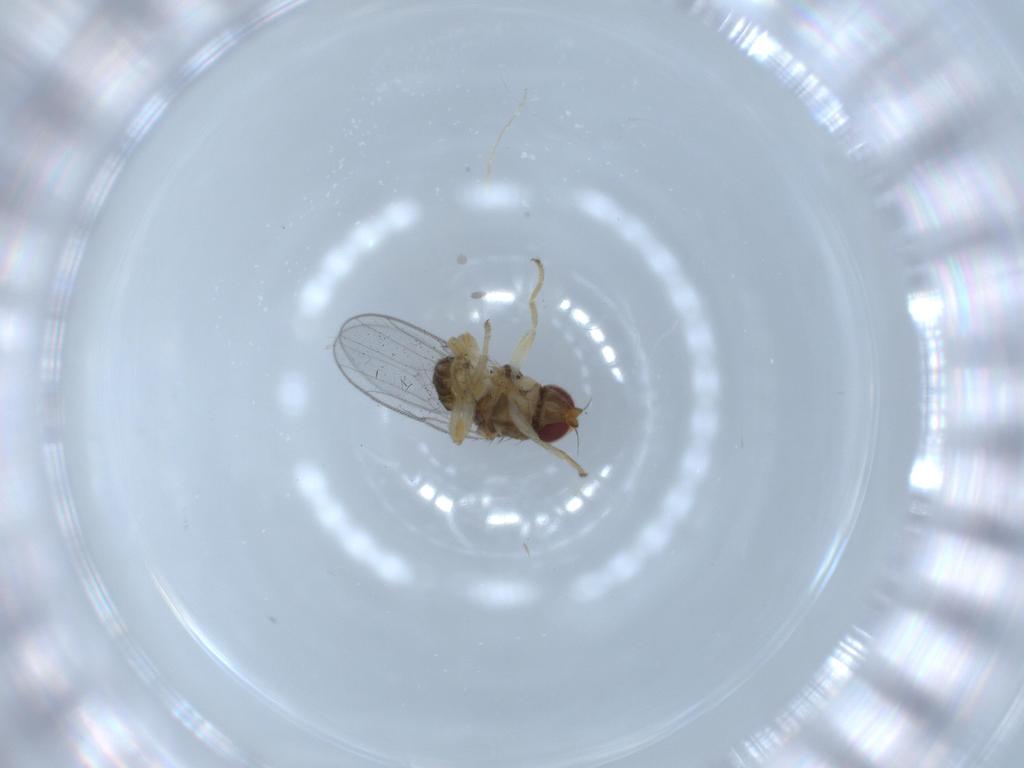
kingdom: Animalia
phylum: Arthropoda
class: Insecta
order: Diptera
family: Chloropidae
